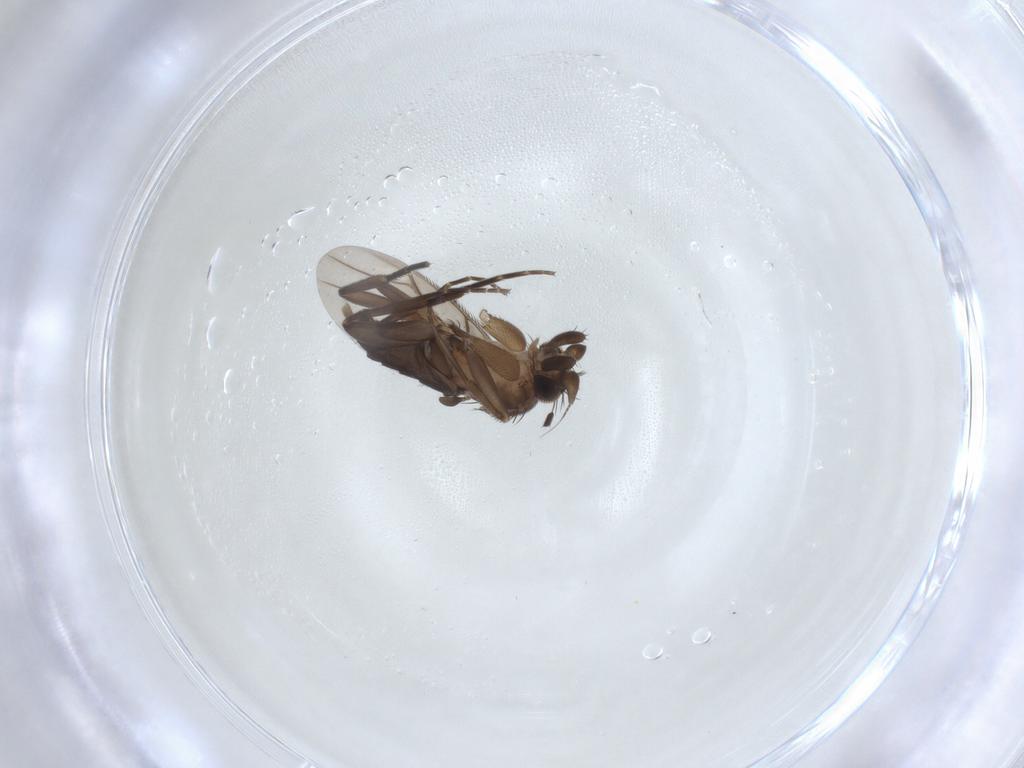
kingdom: Animalia
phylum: Arthropoda
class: Insecta
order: Diptera
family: Phoridae
